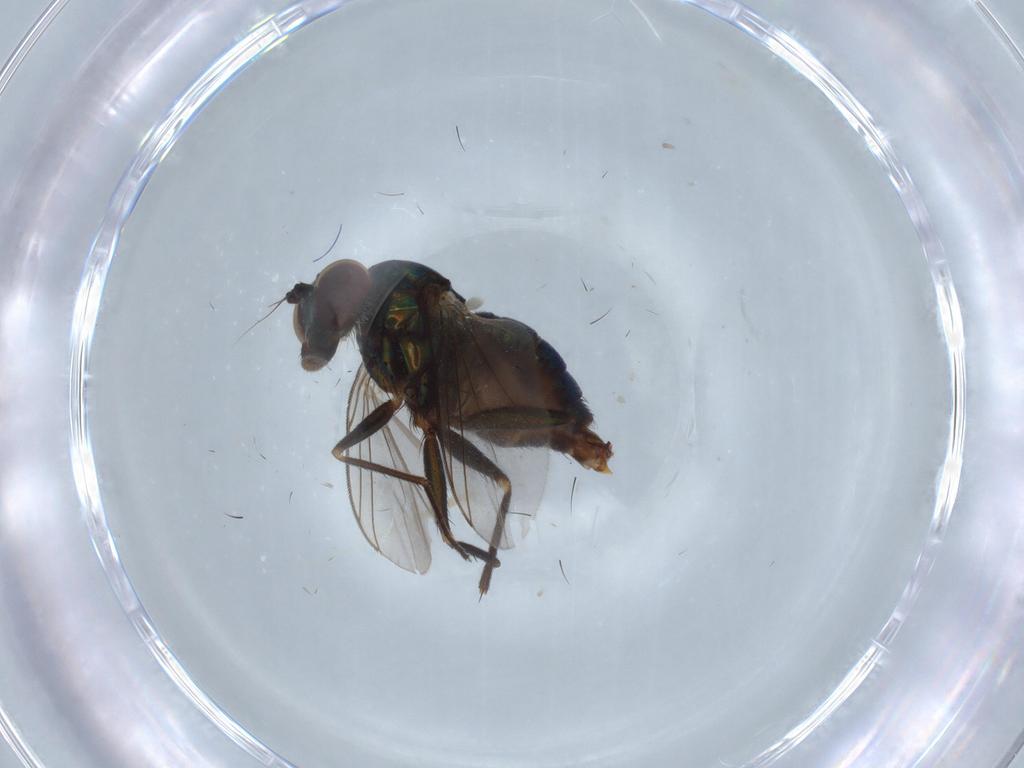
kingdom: Animalia
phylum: Arthropoda
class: Insecta
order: Diptera
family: Dolichopodidae
